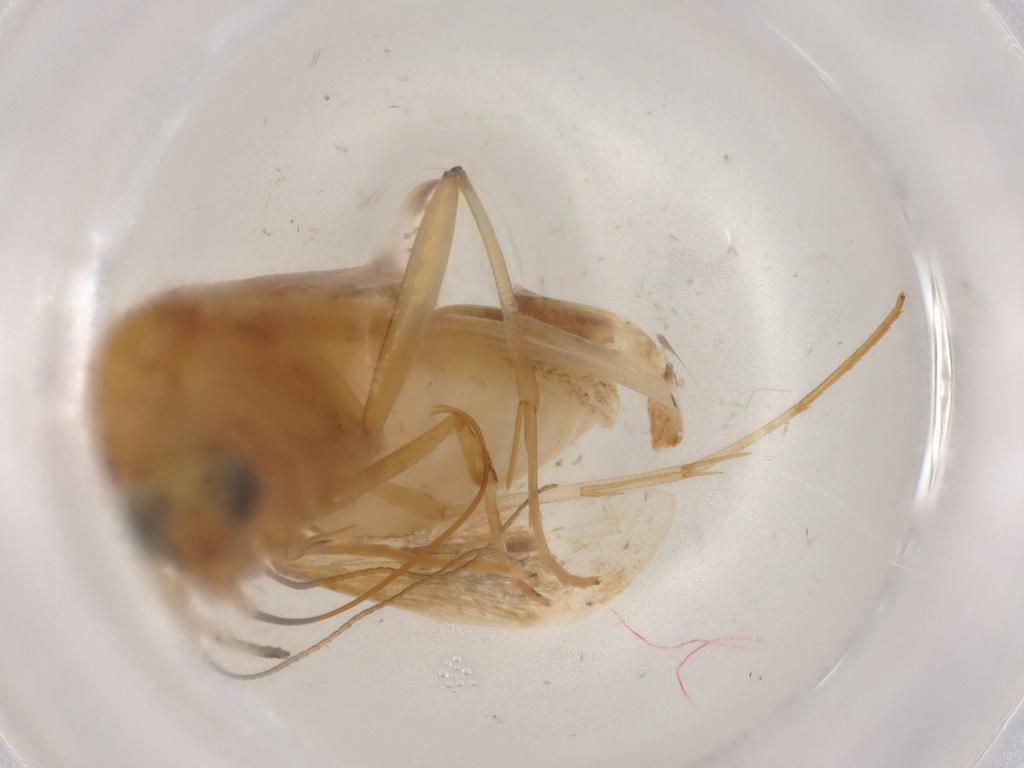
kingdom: Animalia
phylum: Arthropoda
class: Insecta
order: Lepidoptera
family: Crambidae
